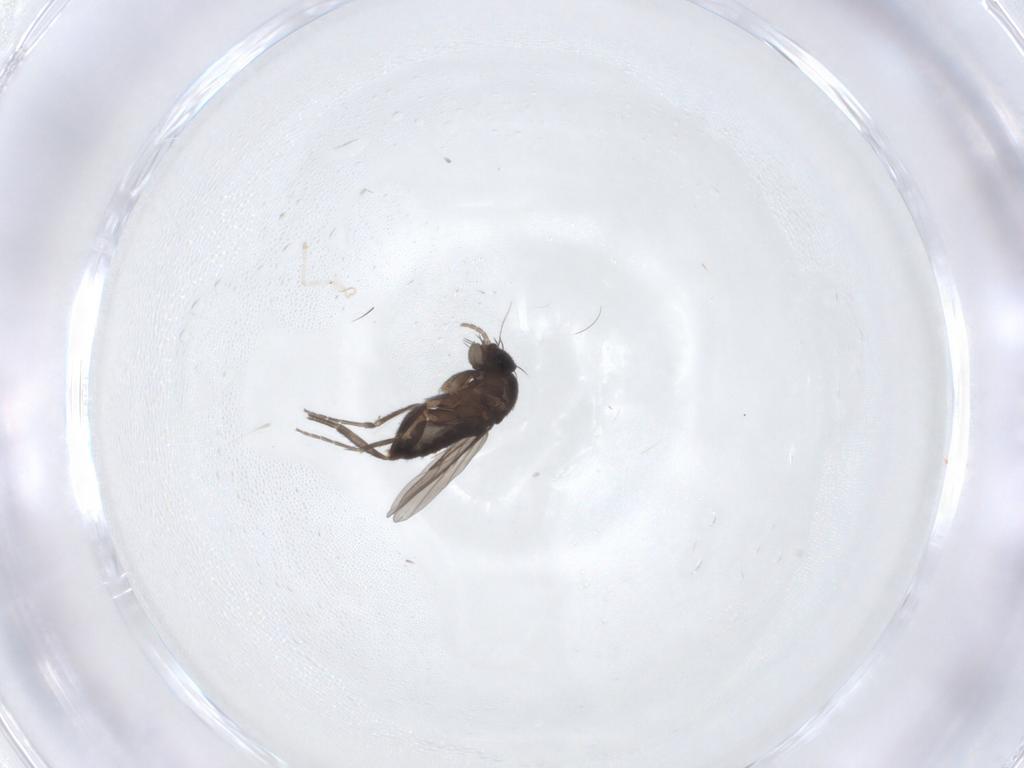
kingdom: Animalia
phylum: Arthropoda
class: Insecta
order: Diptera
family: Phoridae
